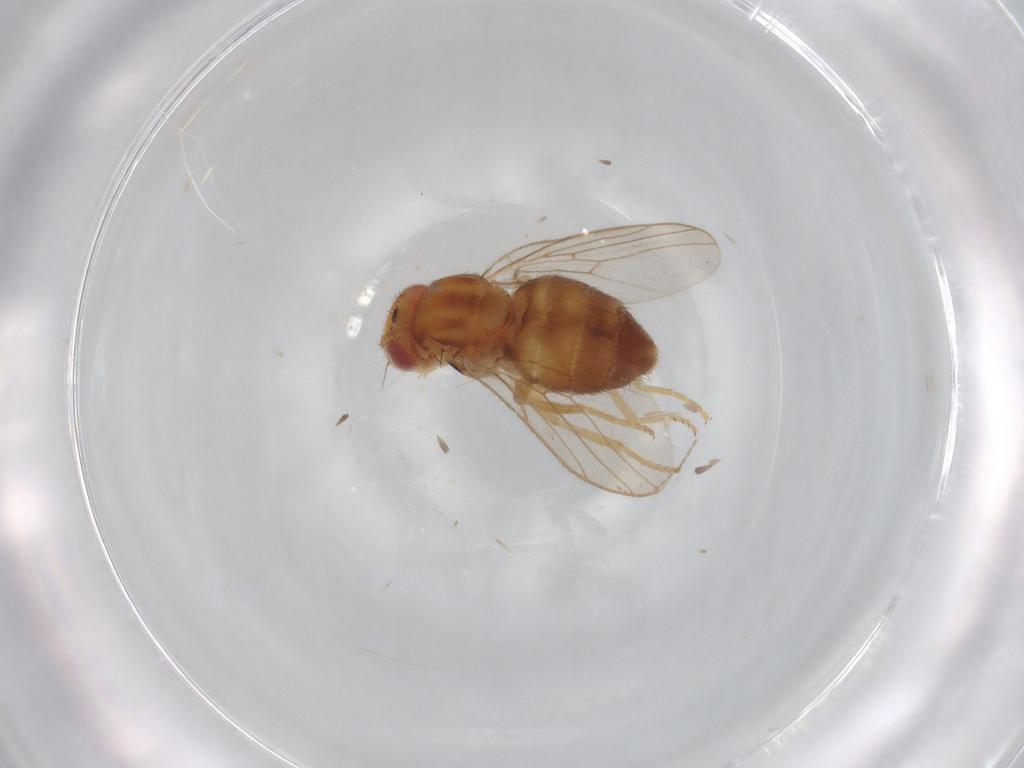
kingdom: Animalia
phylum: Arthropoda
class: Insecta
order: Diptera
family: Chloropidae
